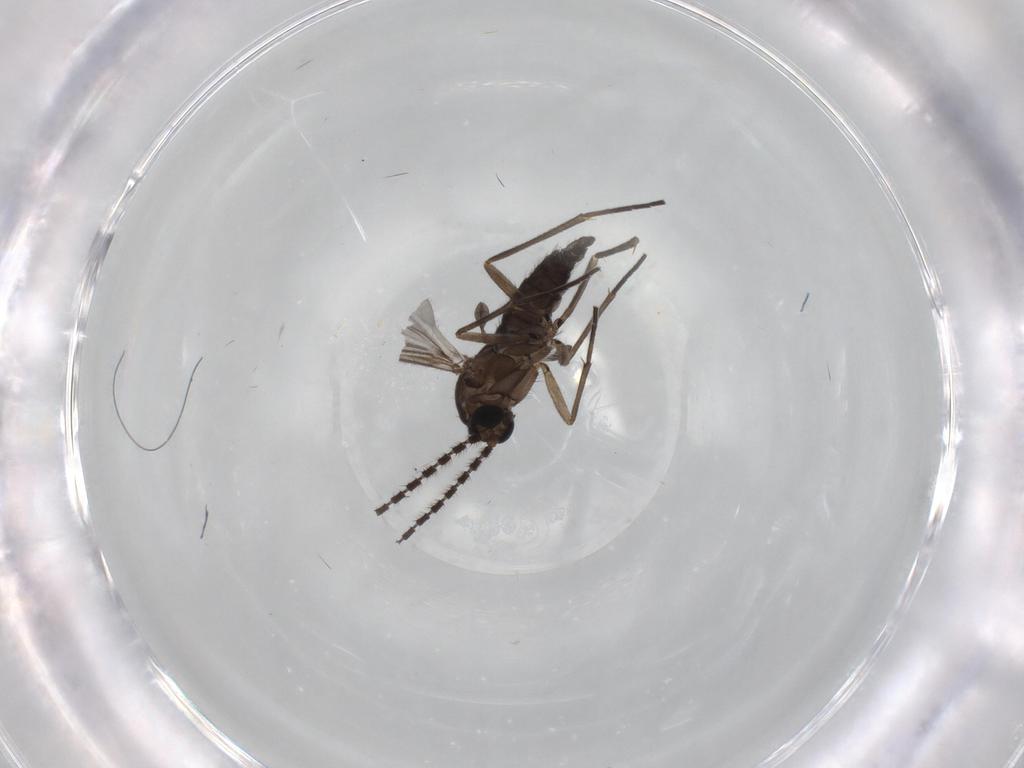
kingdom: Animalia
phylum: Arthropoda
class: Insecta
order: Diptera
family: Sciaridae
